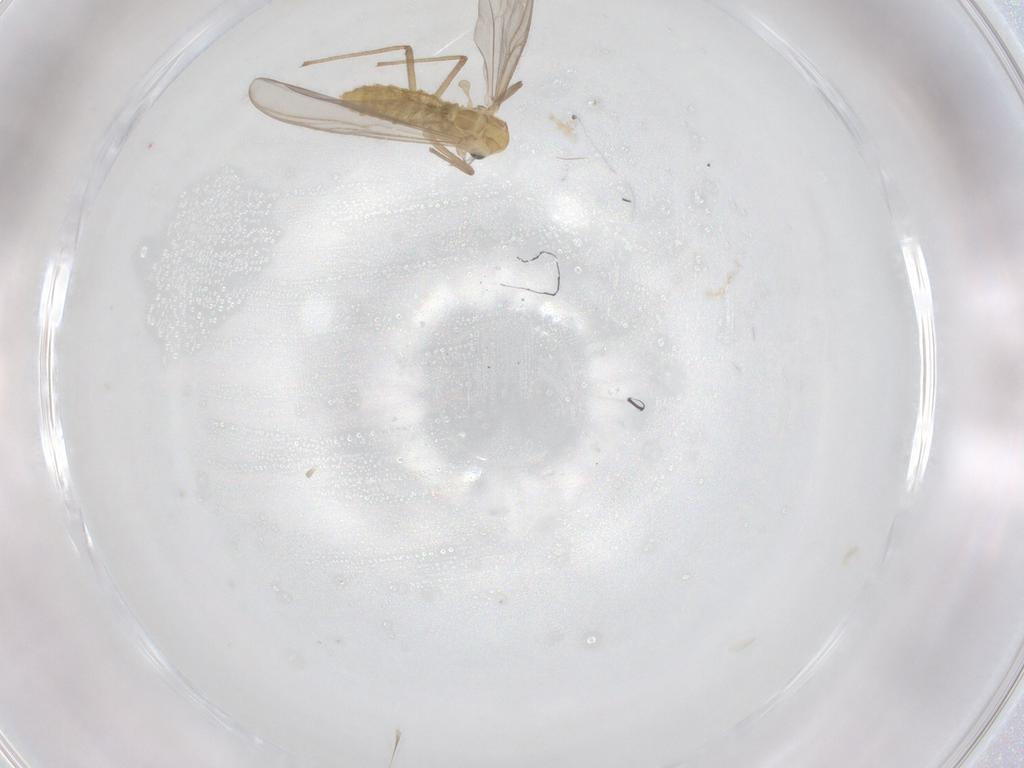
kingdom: Animalia
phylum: Arthropoda
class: Insecta
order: Diptera
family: Chironomidae
